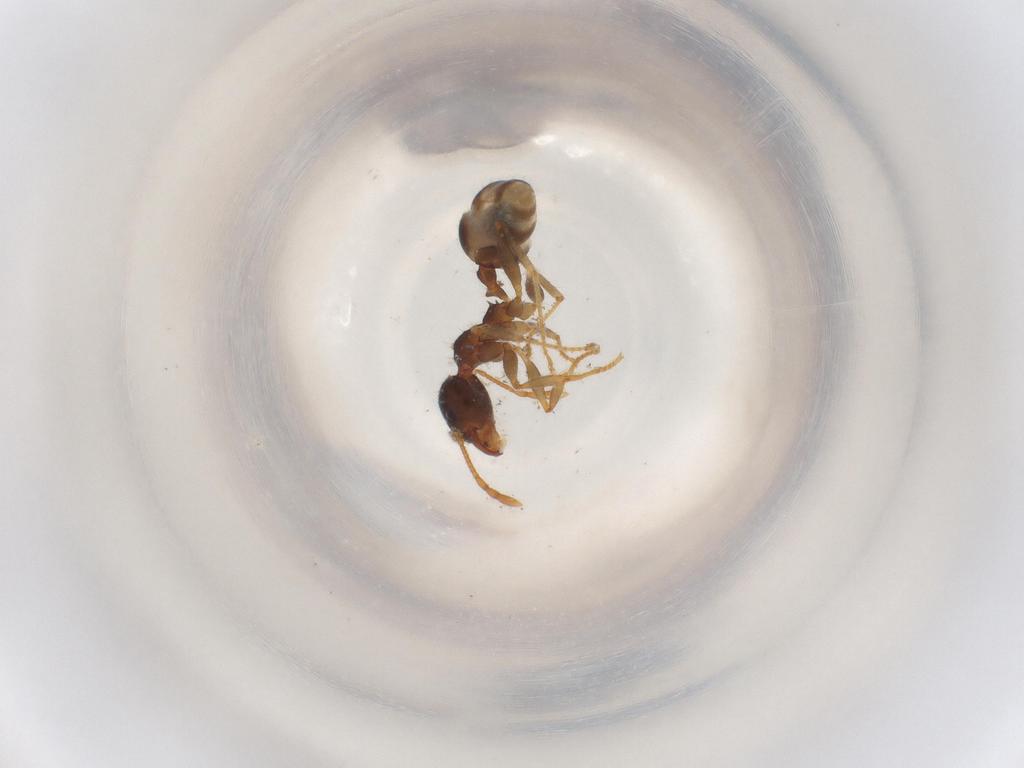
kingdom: Animalia
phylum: Arthropoda
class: Insecta
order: Hymenoptera
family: Formicidae
